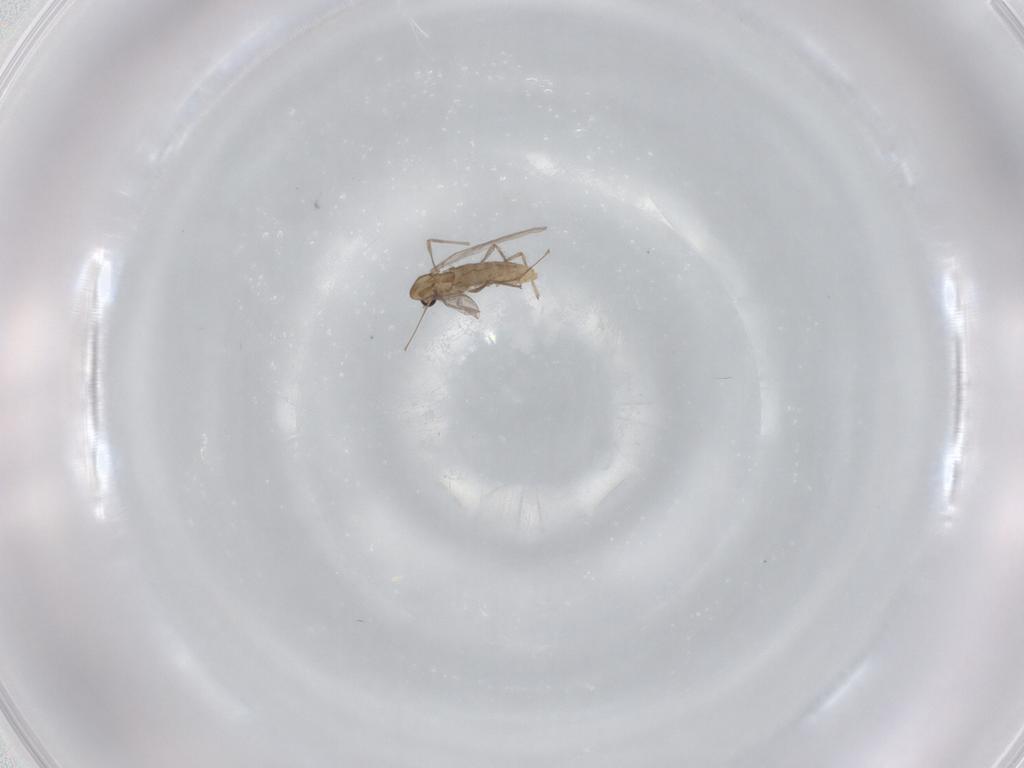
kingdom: Animalia
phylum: Arthropoda
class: Insecta
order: Diptera
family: Chironomidae
